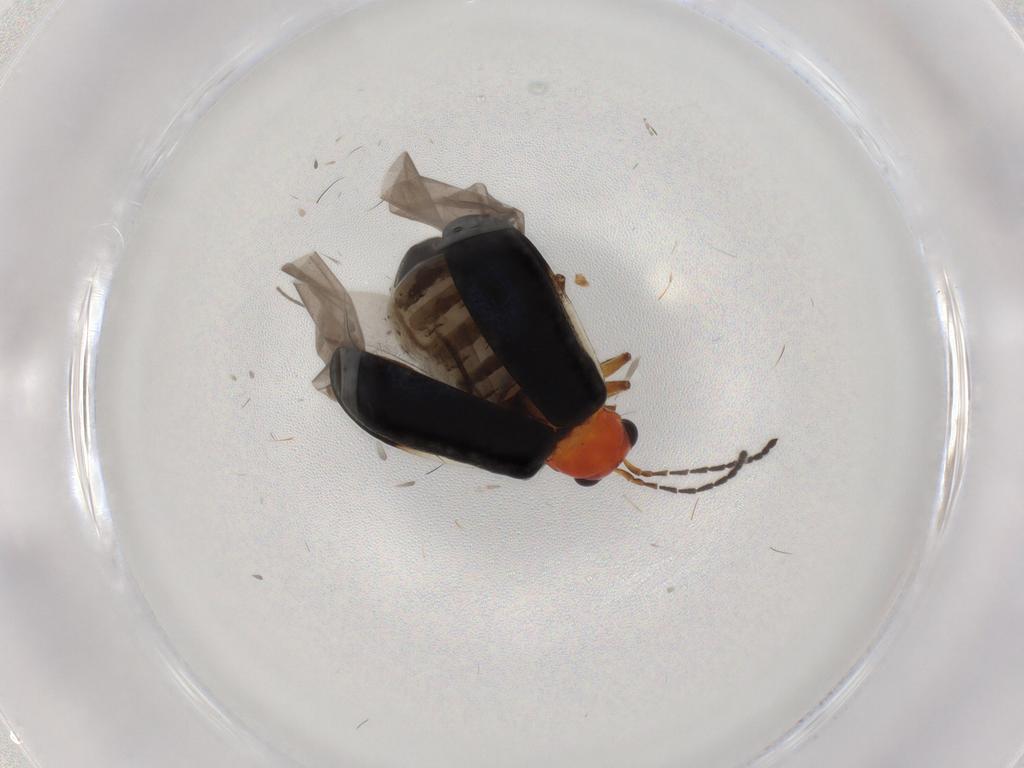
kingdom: Animalia
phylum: Arthropoda
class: Insecta
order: Coleoptera
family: Chrysomelidae
